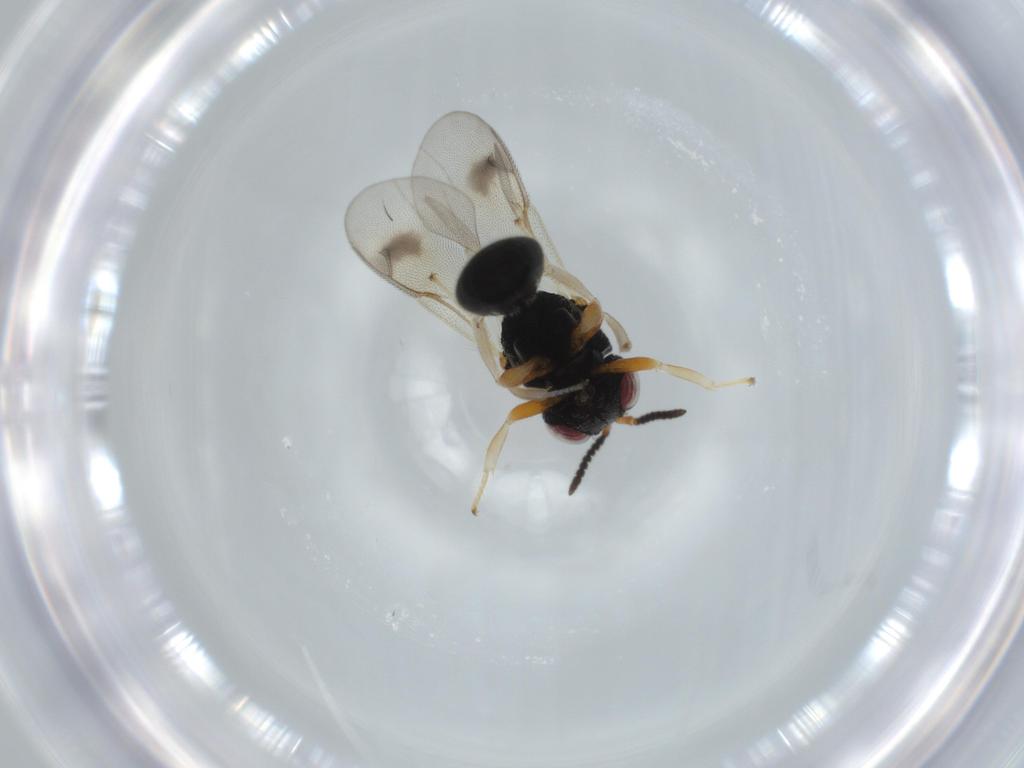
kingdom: Animalia
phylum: Arthropoda
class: Insecta
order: Hymenoptera
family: Eurytomidae
